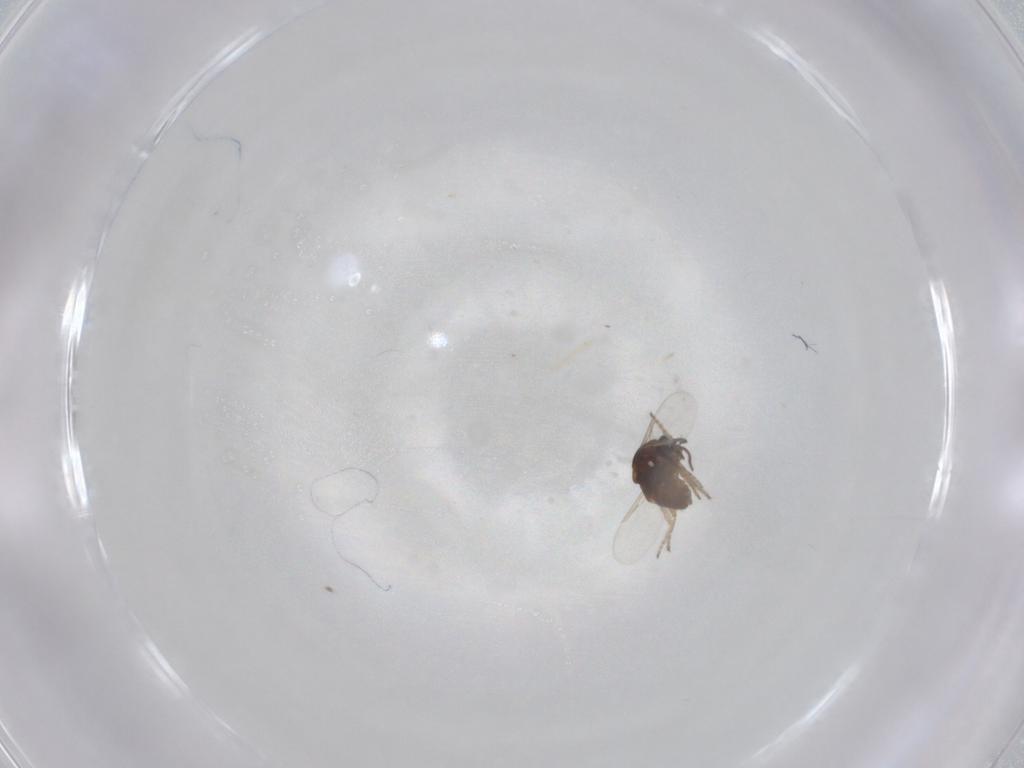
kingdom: Animalia
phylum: Arthropoda
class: Insecta
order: Diptera
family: Ceratopogonidae
